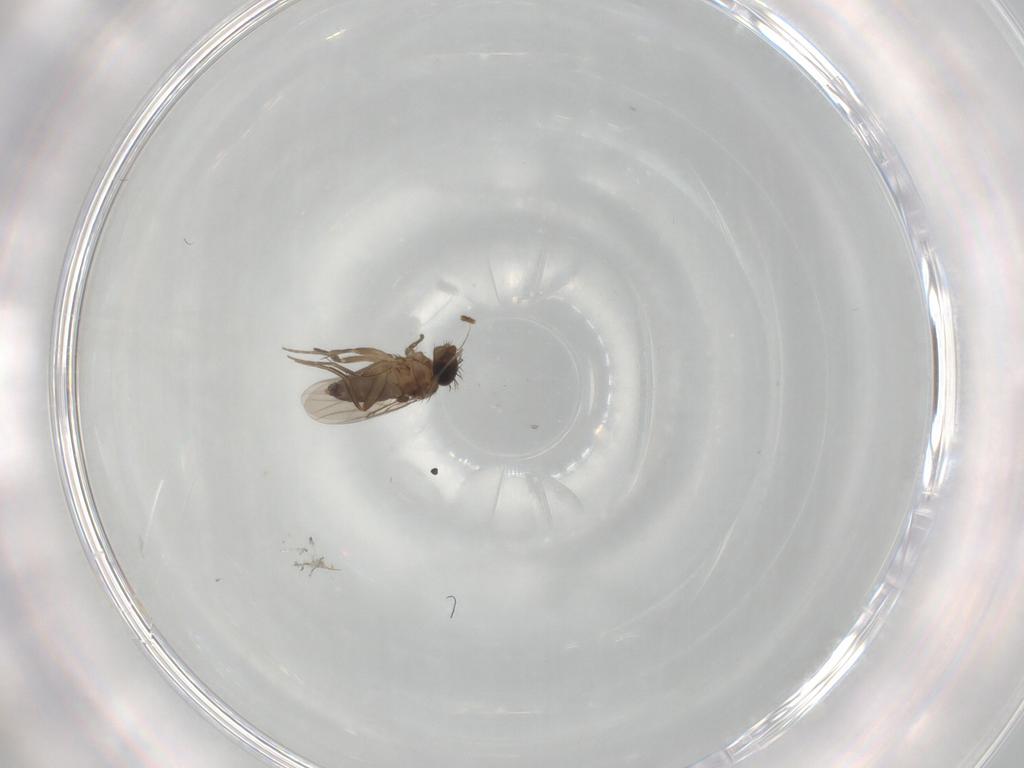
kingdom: Animalia
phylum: Arthropoda
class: Insecta
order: Diptera
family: Phoridae
